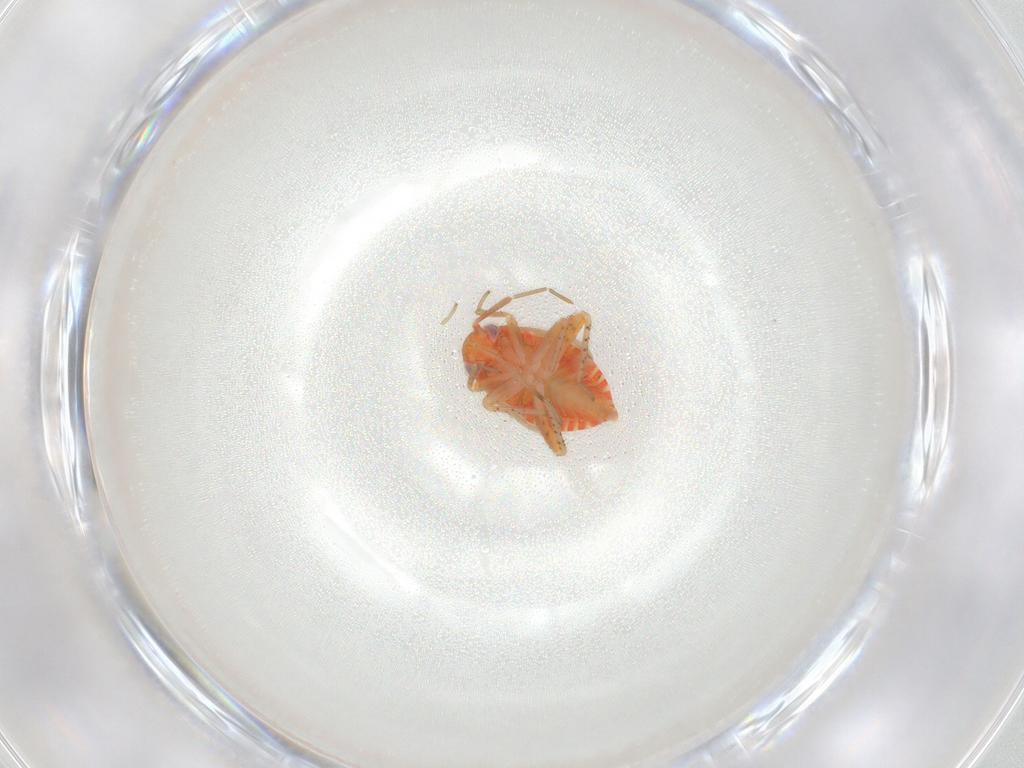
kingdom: Animalia
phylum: Arthropoda
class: Insecta
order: Hemiptera
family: Miridae
